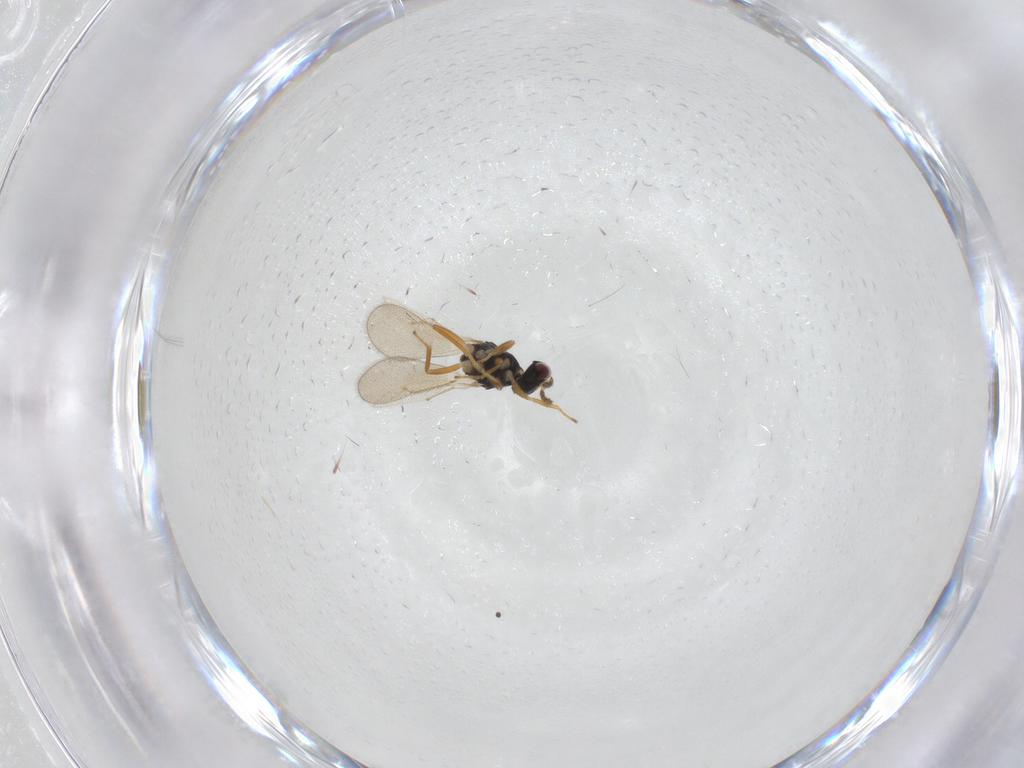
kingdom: Animalia
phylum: Arthropoda
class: Insecta
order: Hymenoptera
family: Eulophidae
